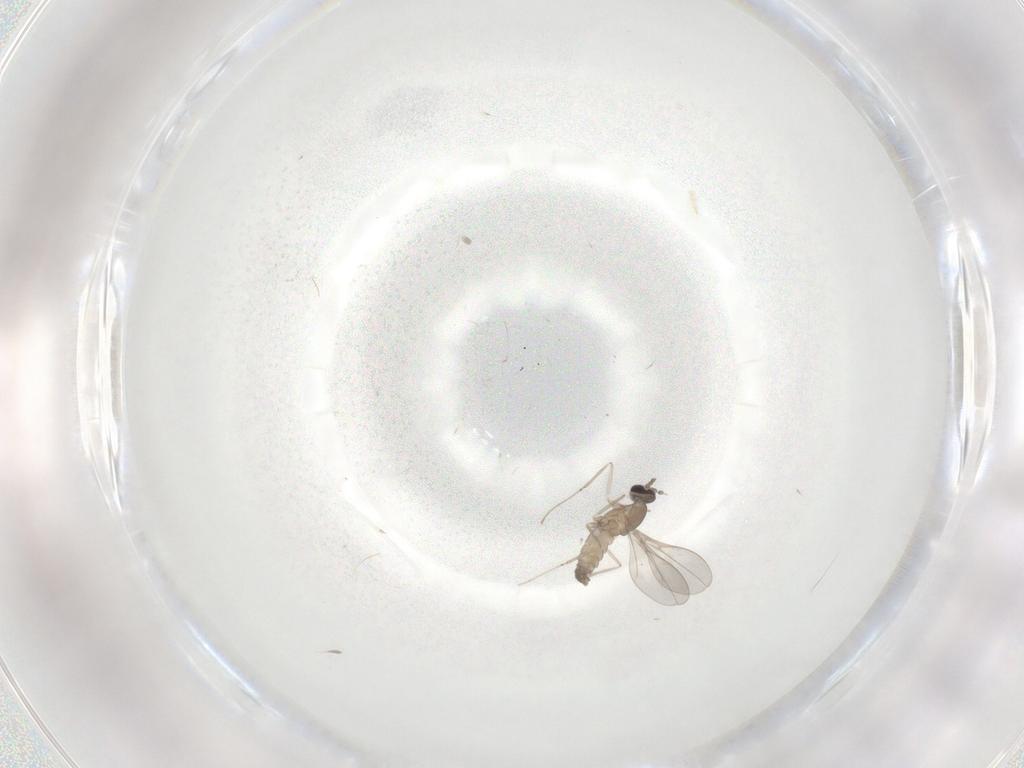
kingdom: Animalia
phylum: Arthropoda
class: Insecta
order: Diptera
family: Cecidomyiidae
